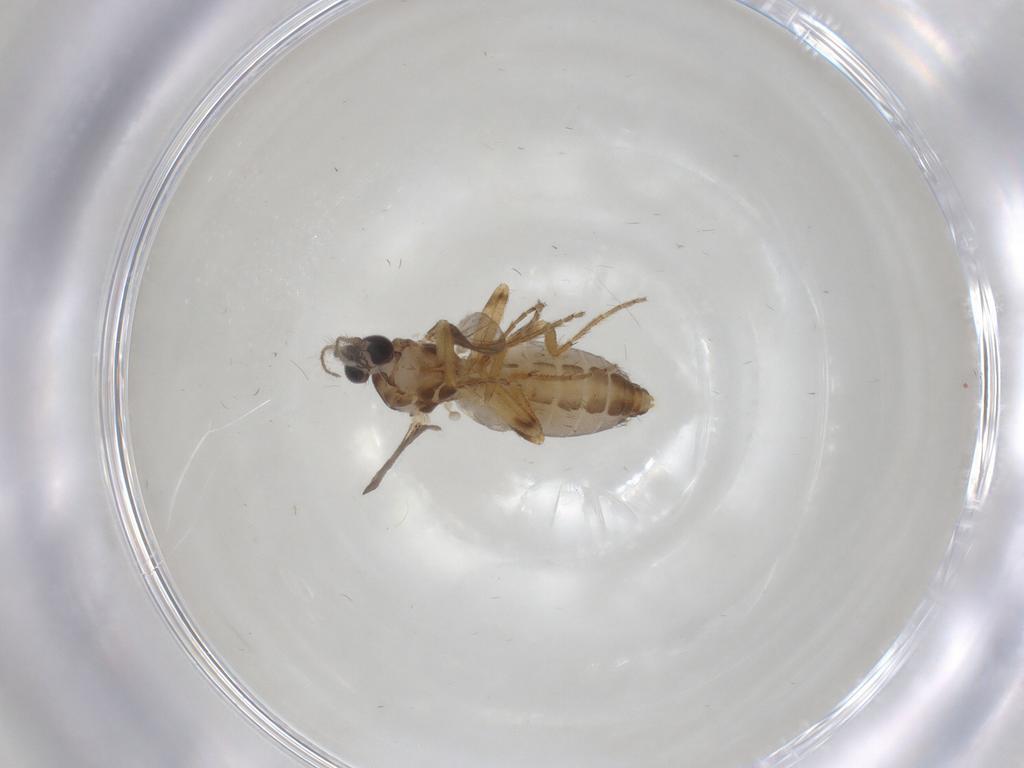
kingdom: Animalia
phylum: Arthropoda
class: Insecta
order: Diptera
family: Ceratopogonidae
